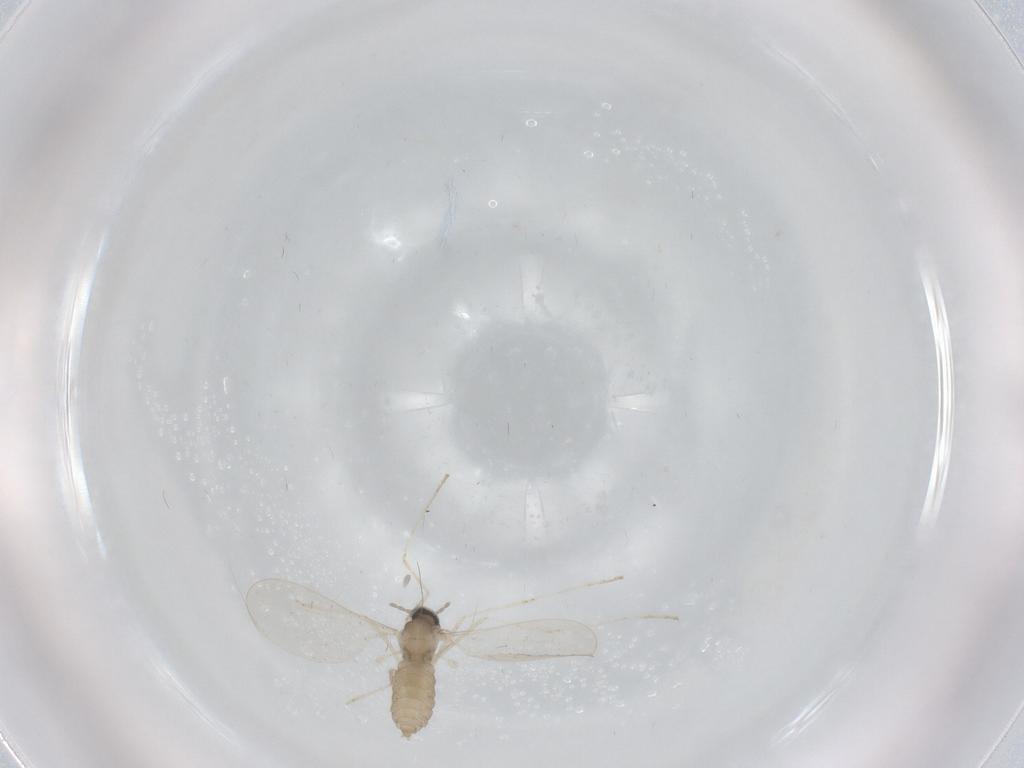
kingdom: Animalia
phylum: Arthropoda
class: Insecta
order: Diptera
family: Cecidomyiidae
